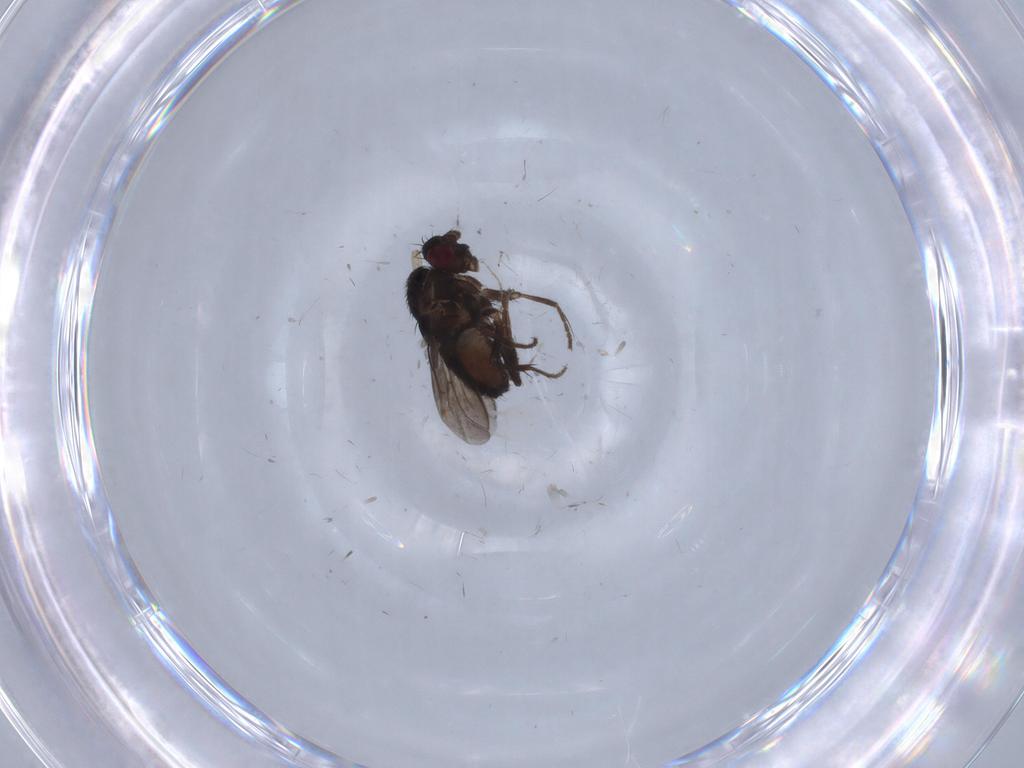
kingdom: Animalia
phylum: Arthropoda
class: Insecta
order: Diptera
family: Sphaeroceridae
